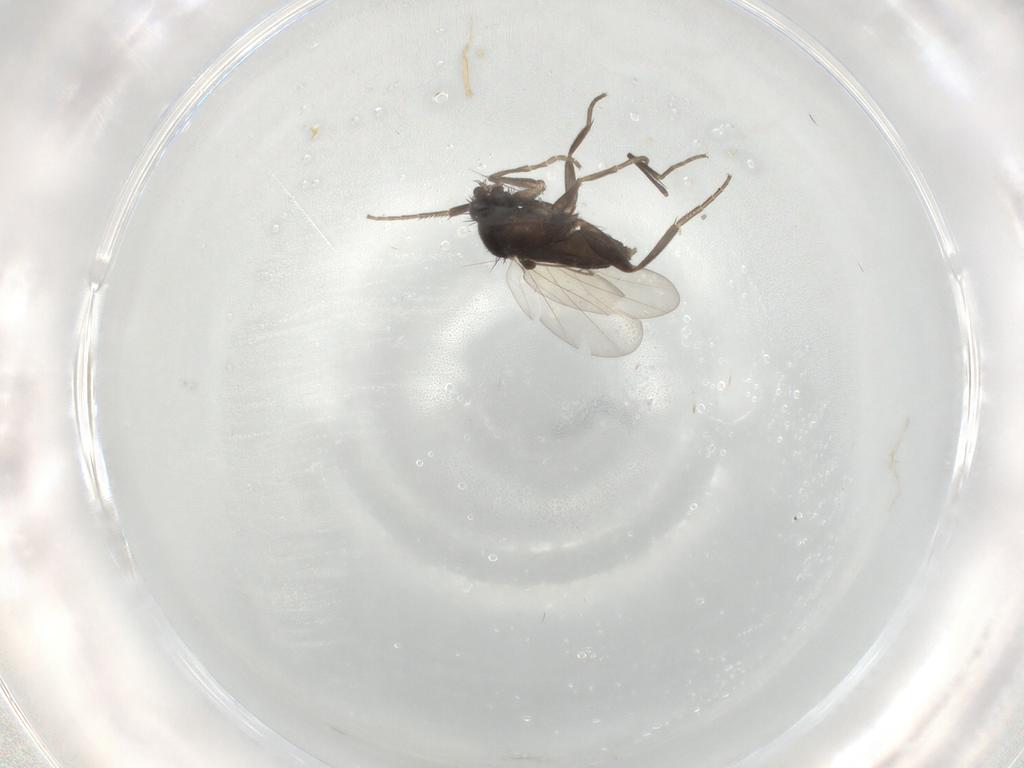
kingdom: Animalia
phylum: Arthropoda
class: Insecta
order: Diptera
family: Phoridae
